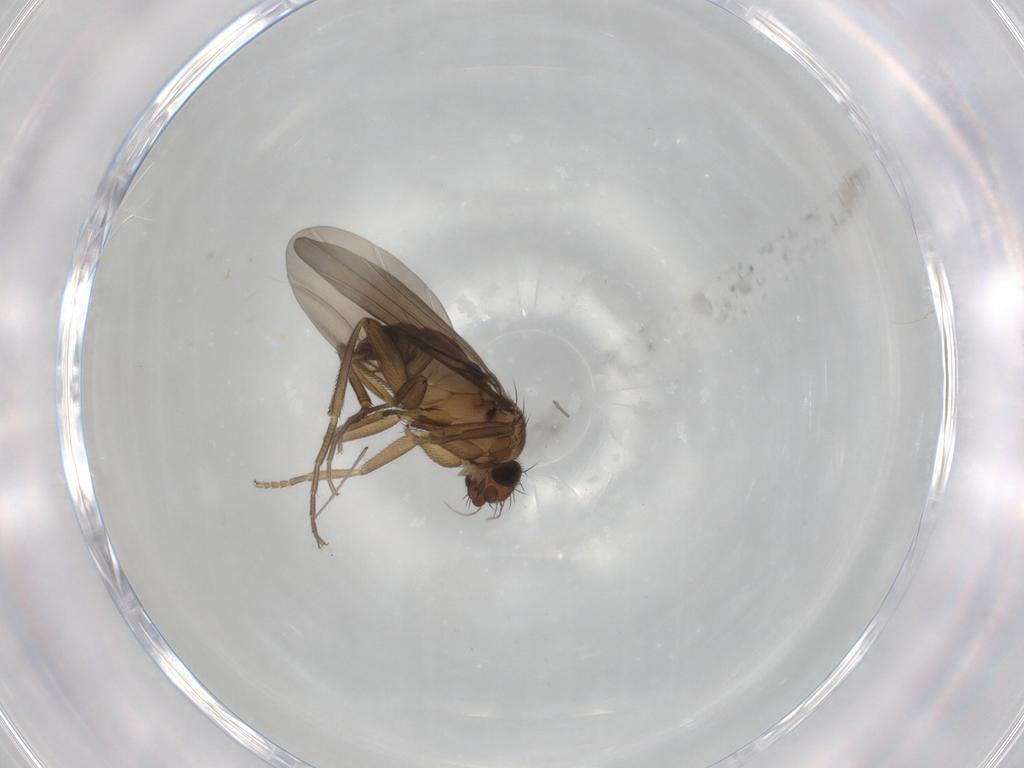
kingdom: Animalia
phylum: Arthropoda
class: Insecta
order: Diptera
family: Phoridae
